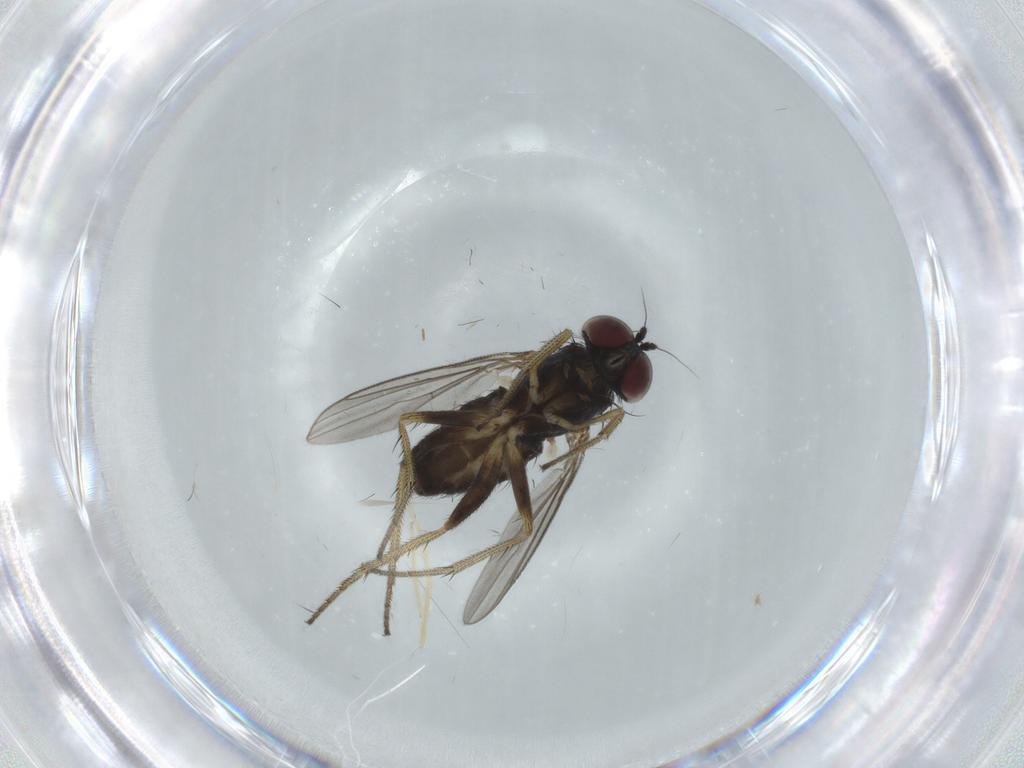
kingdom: Animalia
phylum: Arthropoda
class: Insecta
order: Diptera
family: Chironomidae
